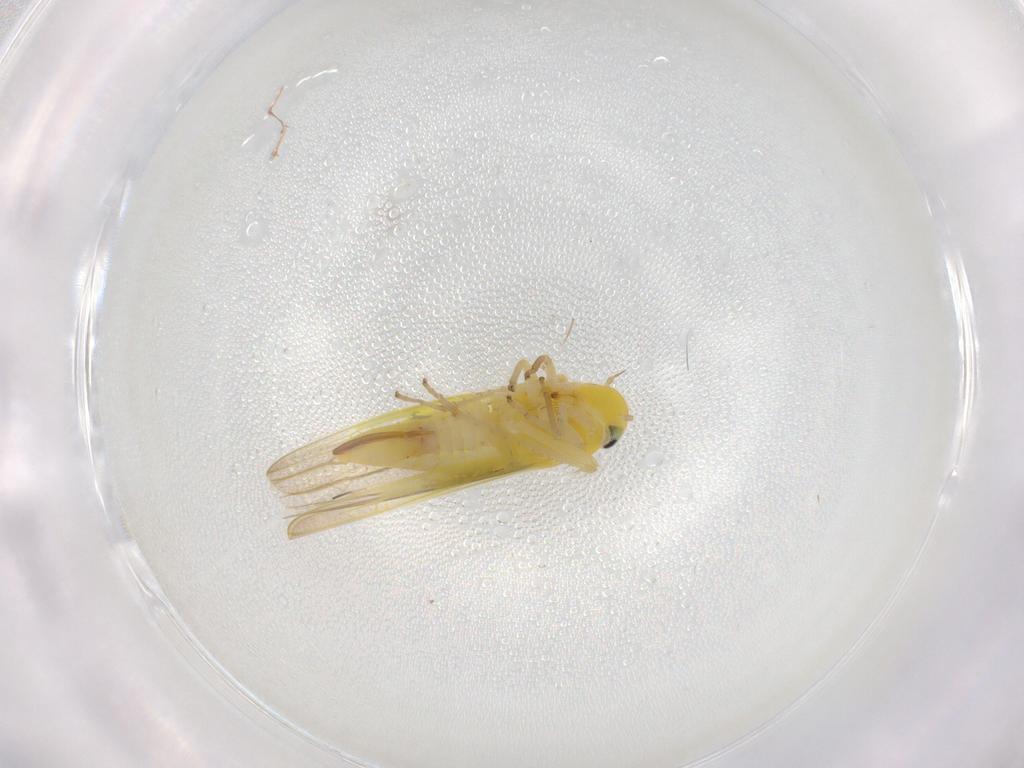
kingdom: Animalia
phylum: Arthropoda
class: Insecta
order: Hemiptera
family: Cicadellidae
